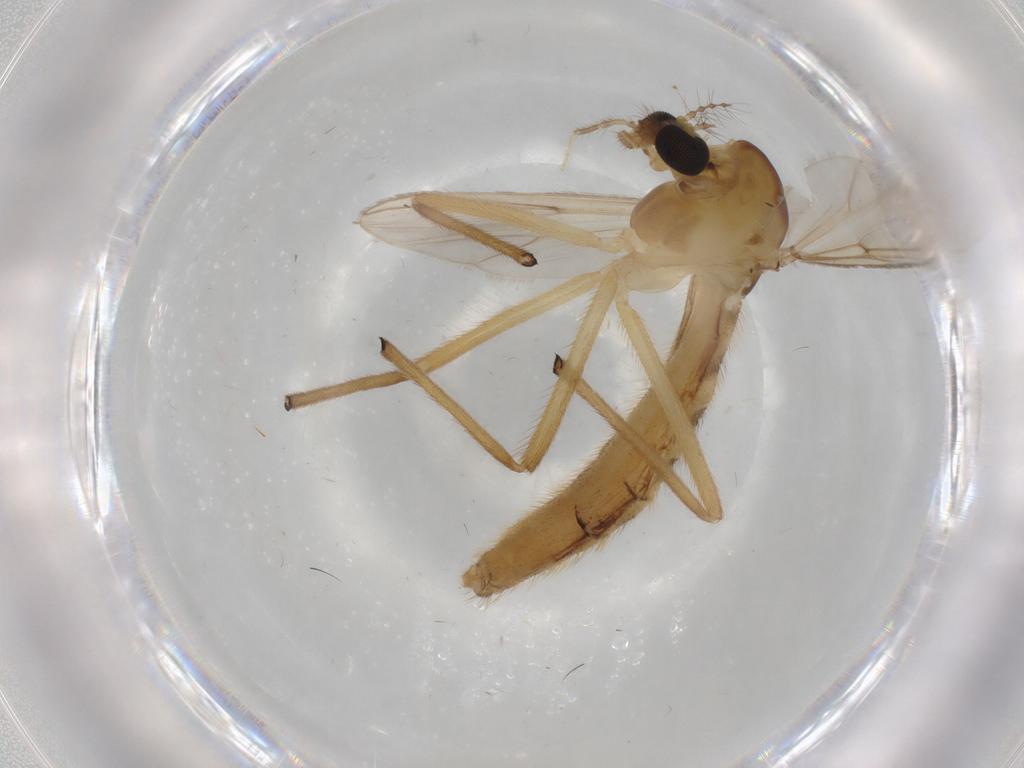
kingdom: Animalia
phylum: Arthropoda
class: Insecta
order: Diptera
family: Chironomidae
